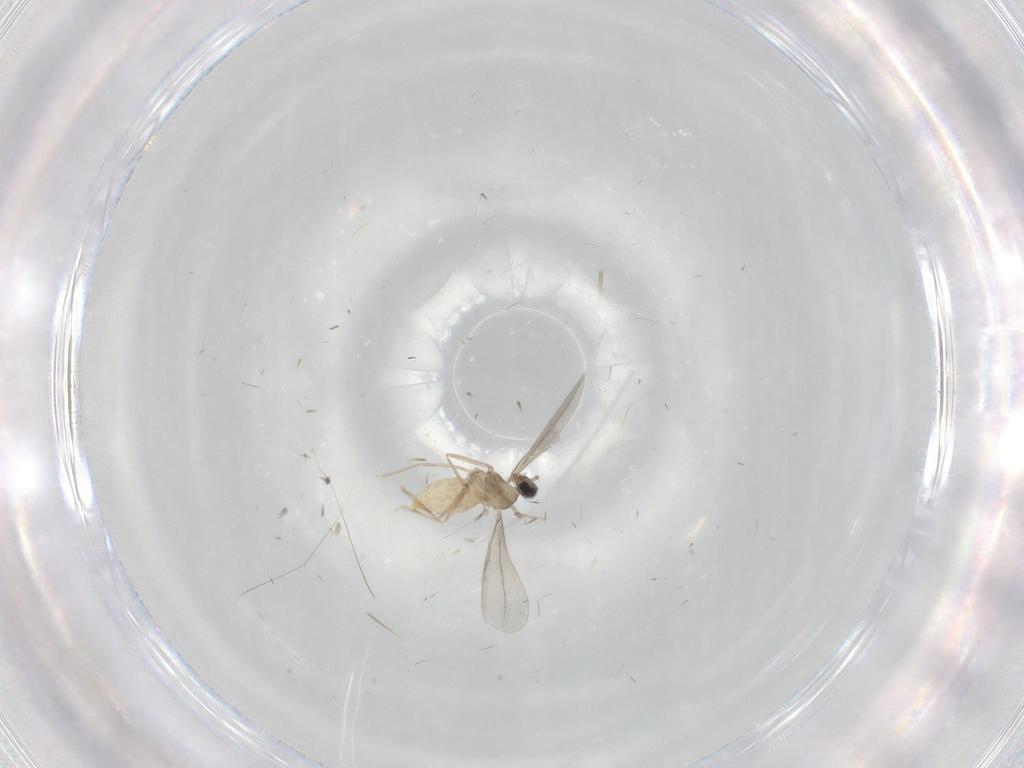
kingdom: Animalia
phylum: Arthropoda
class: Insecta
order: Diptera
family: Cecidomyiidae
